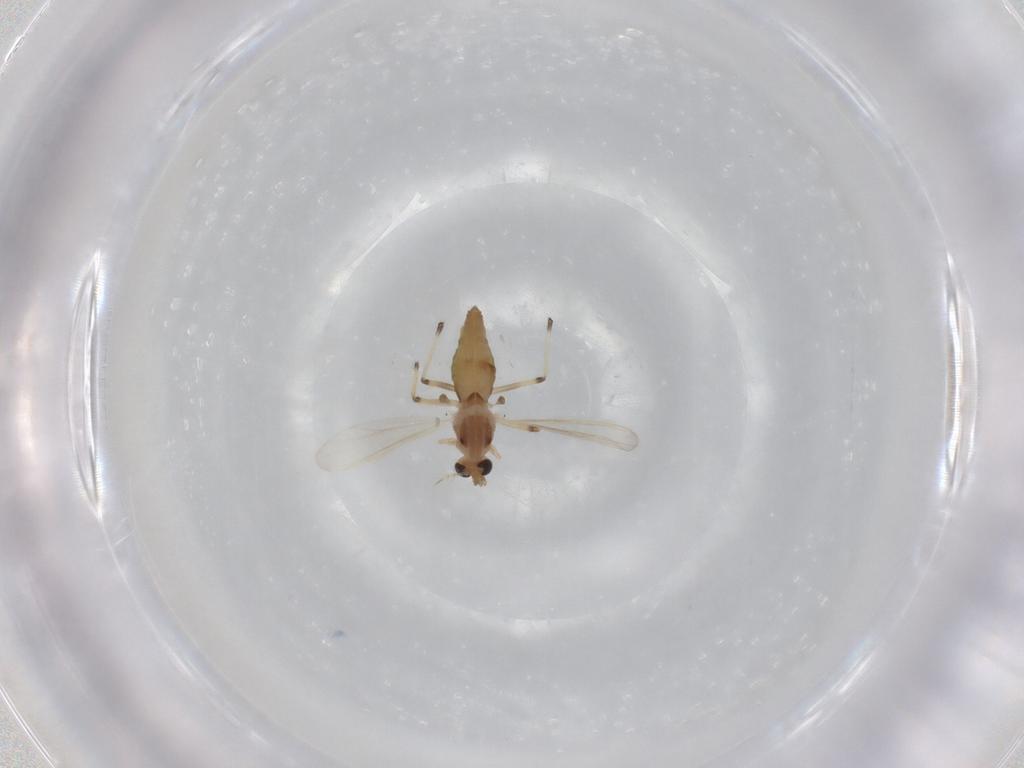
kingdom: Animalia
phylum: Arthropoda
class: Insecta
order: Diptera
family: Chironomidae
